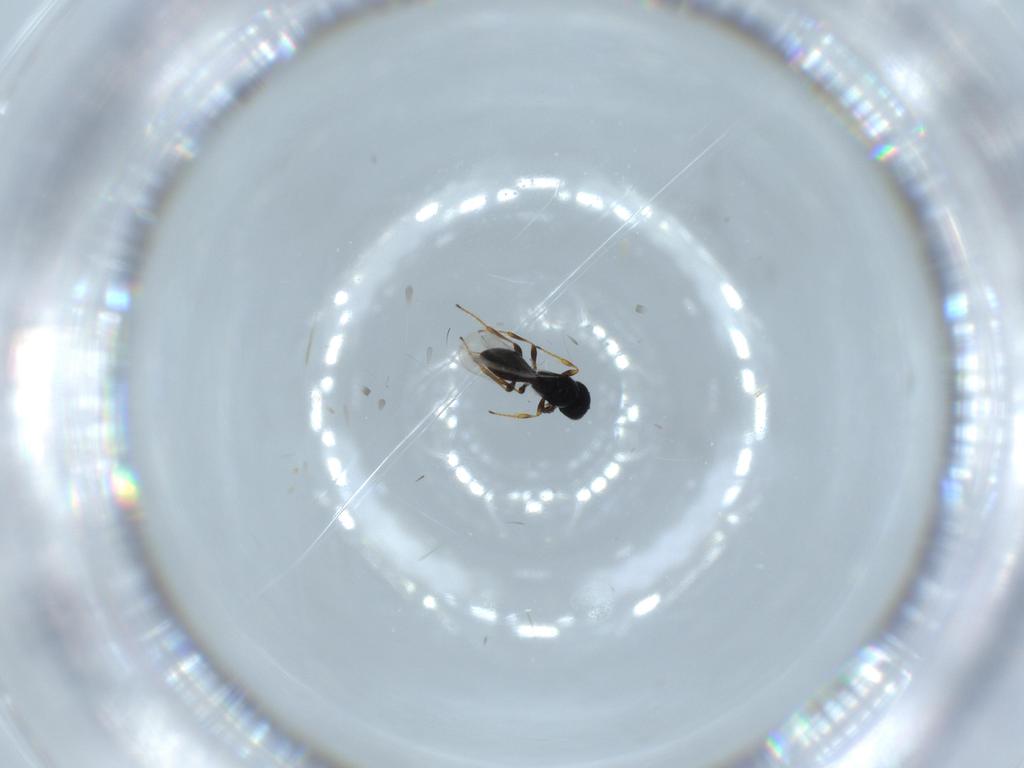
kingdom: Animalia
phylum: Arthropoda
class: Insecta
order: Hymenoptera
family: Platygastridae
